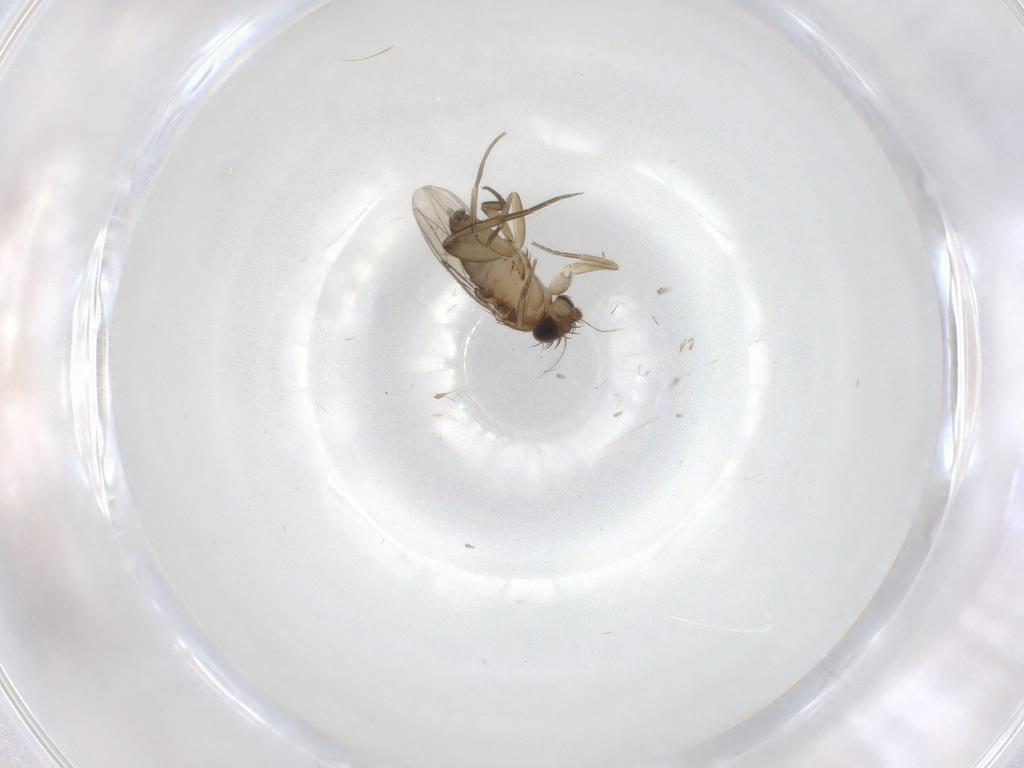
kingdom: Animalia
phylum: Arthropoda
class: Insecta
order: Diptera
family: Phoridae
